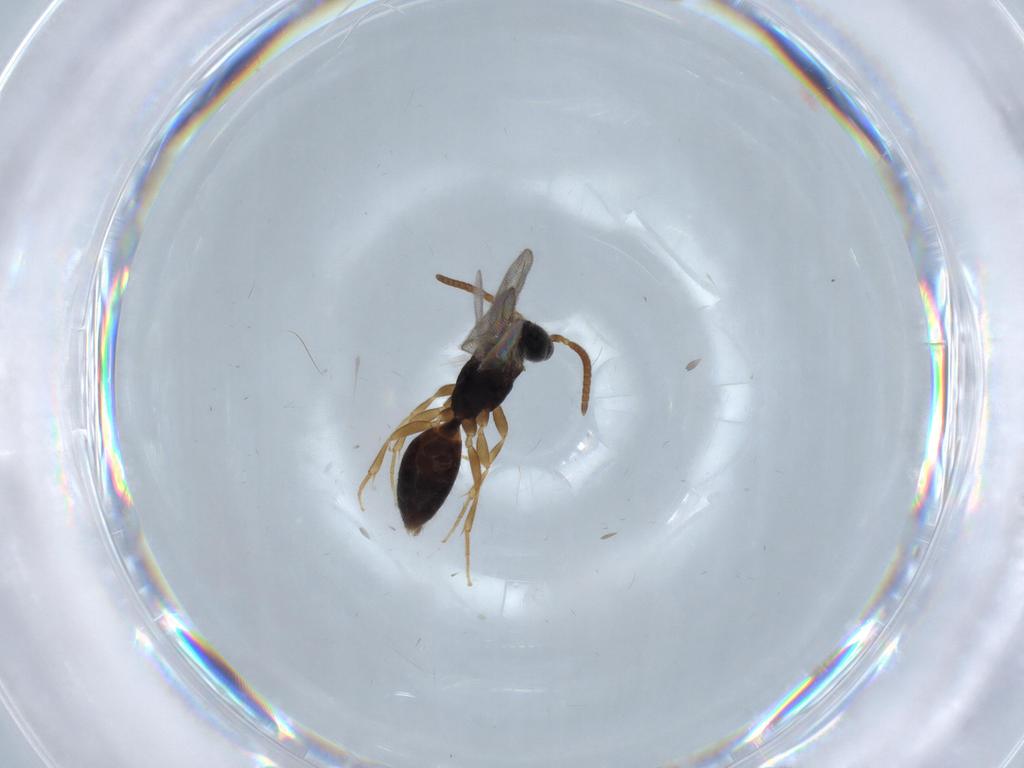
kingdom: Animalia
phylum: Arthropoda
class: Insecta
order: Hymenoptera
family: Bethylidae
